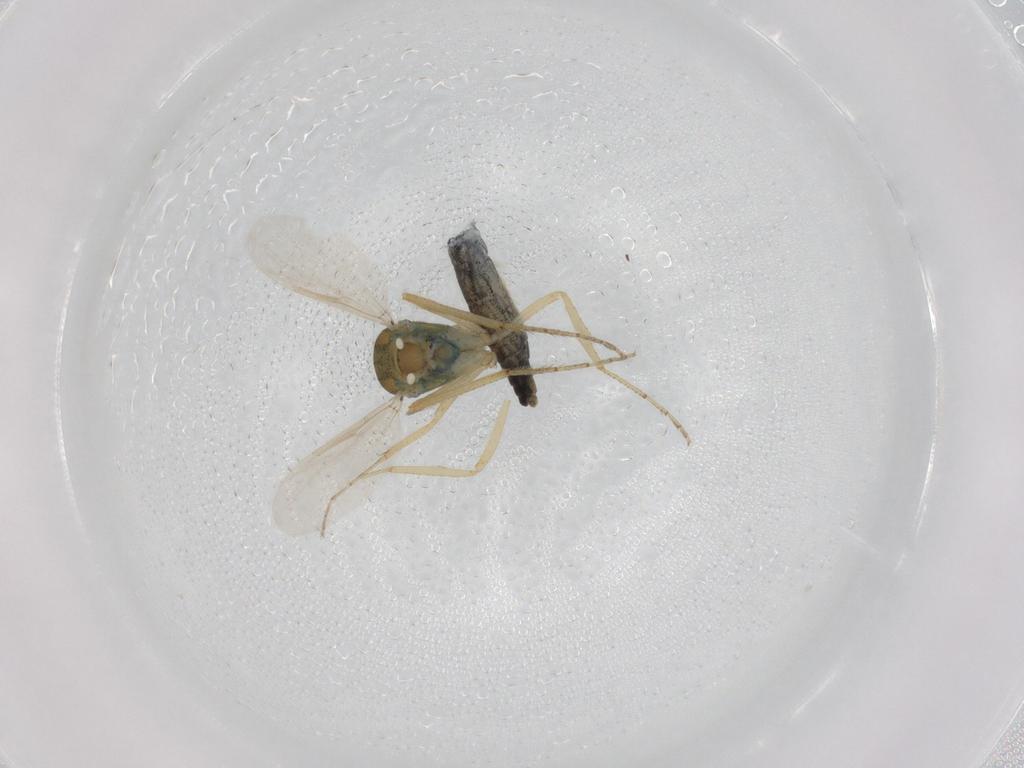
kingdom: Animalia
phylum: Arthropoda
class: Insecta
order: Diptera
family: Ceratopogonidae
